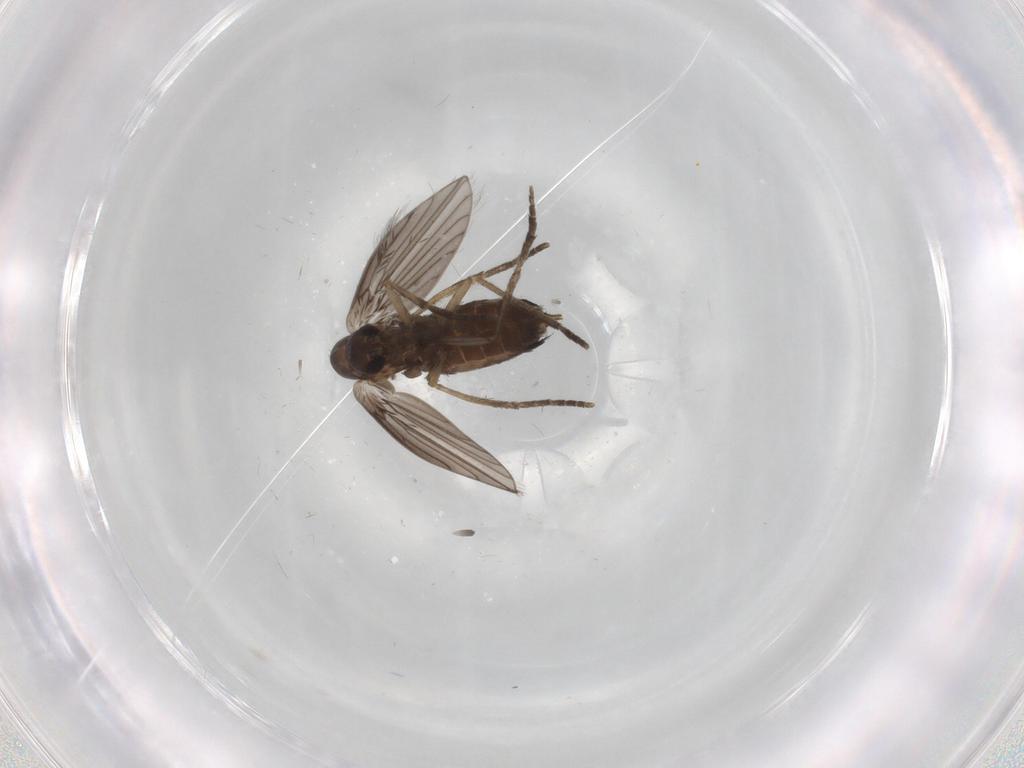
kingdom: Animalia
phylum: Arthropoda
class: Insecta
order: Diptera
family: Cecidomyiidae
